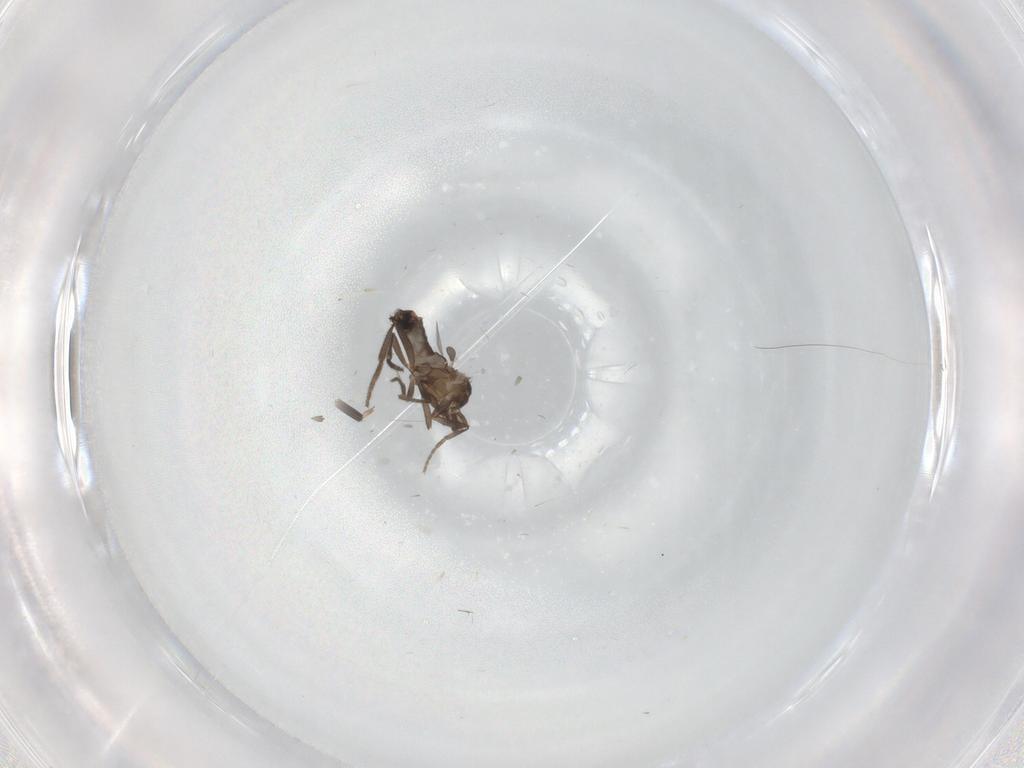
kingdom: Animalia
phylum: Arthropoda
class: Insecta
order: Diptera
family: Phoridae
